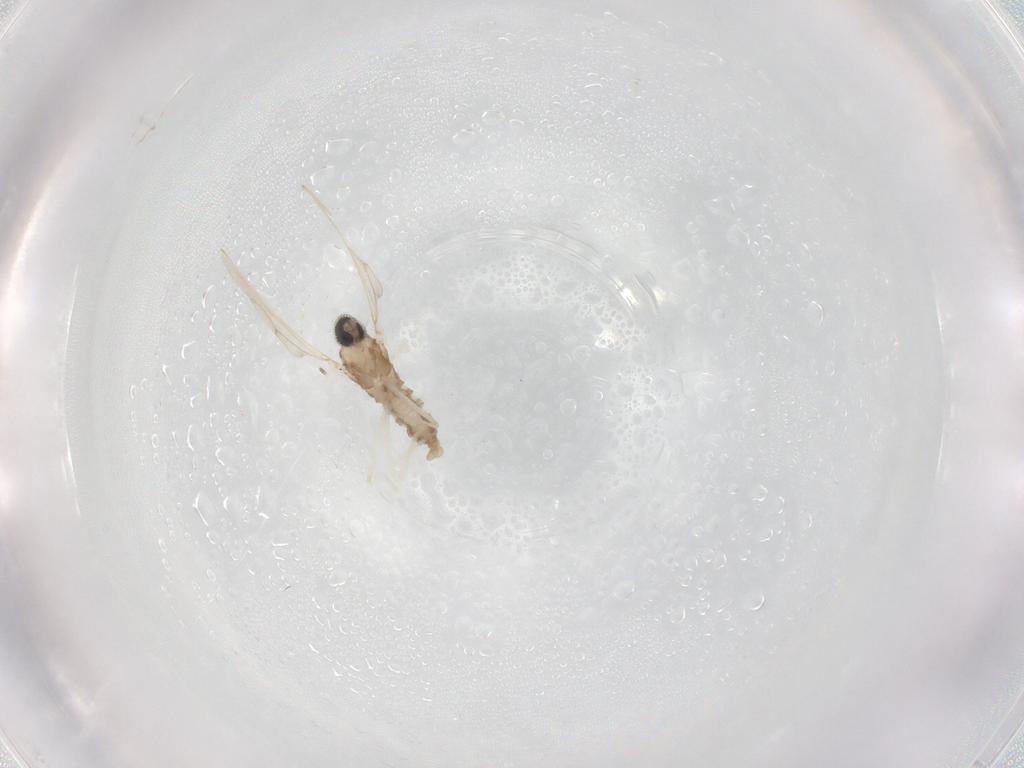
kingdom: Animalia
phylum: Arthropoda
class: Insecta
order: Diptera
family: Cecidomyiidae
